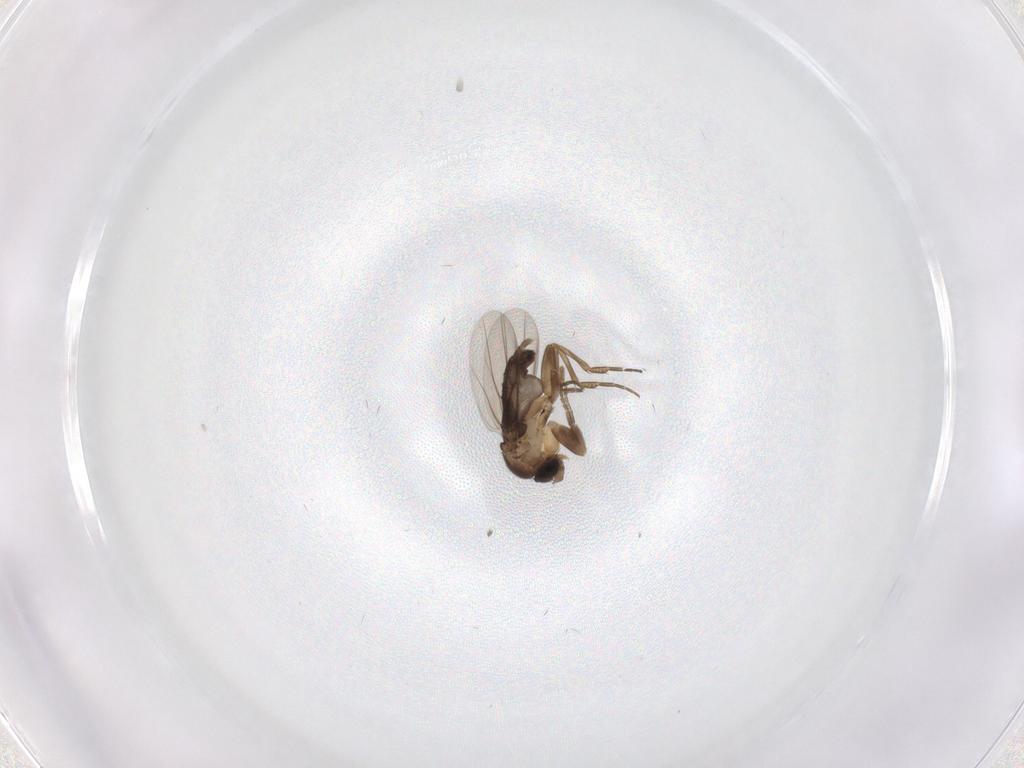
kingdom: Animalia
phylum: Arthropoda
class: Insecta
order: Diptera
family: Phoridae
